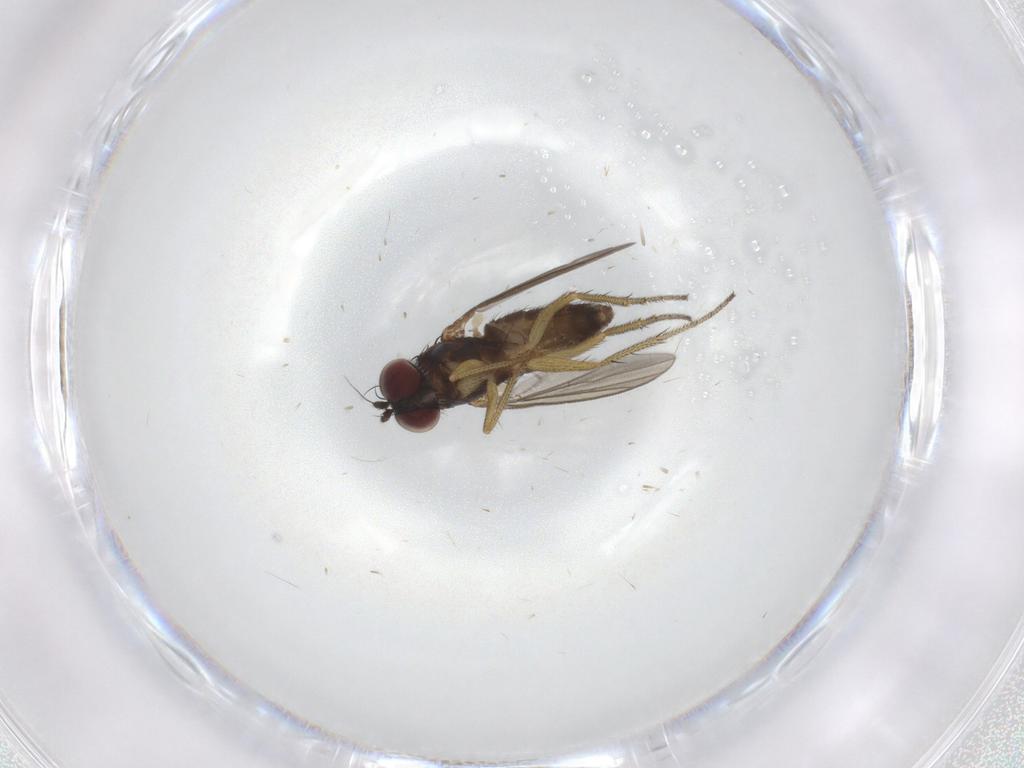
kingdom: Animalia
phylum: Arthropoda
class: Insecta
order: Diptera
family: Dolichopodidae
